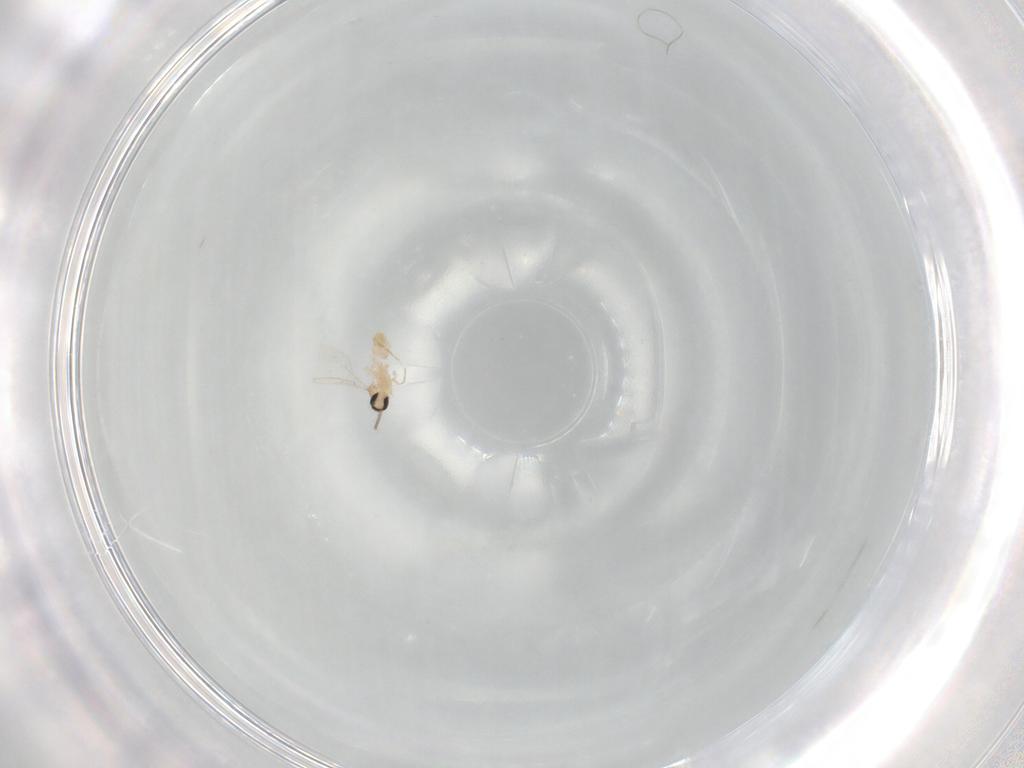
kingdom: Animalia
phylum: Arthropoda
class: Insecta
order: Diptera
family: Cecidomyiidae
